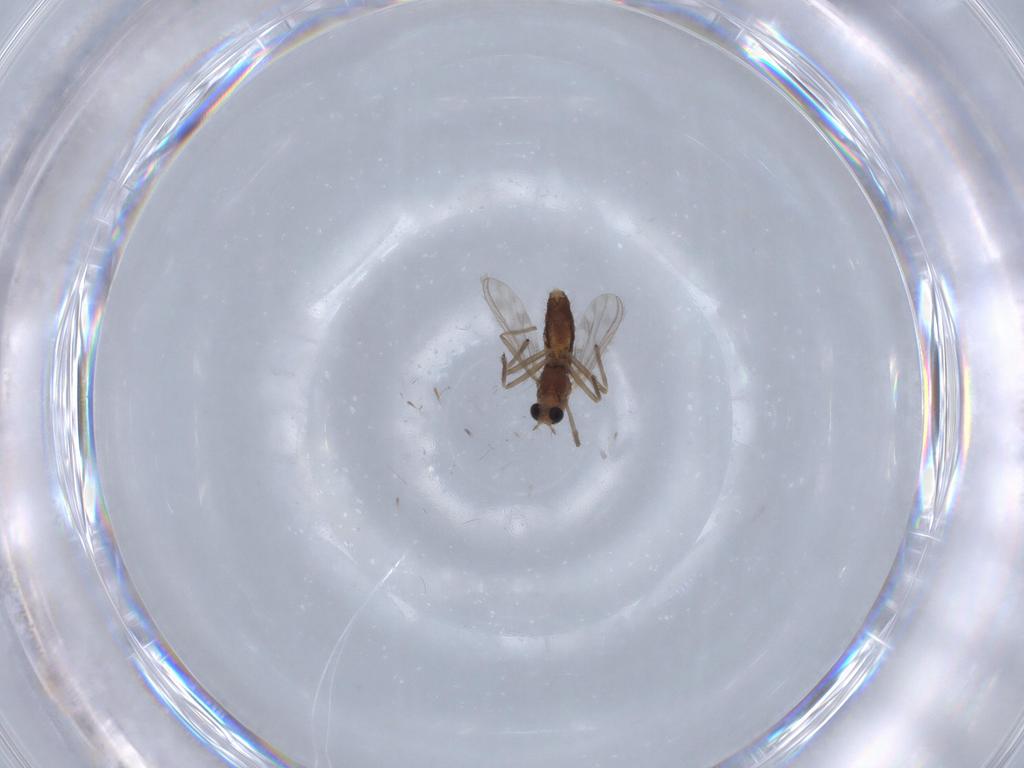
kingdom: Animalia
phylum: Arthropoda
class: Insecta
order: Diptera
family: Chironomidae
